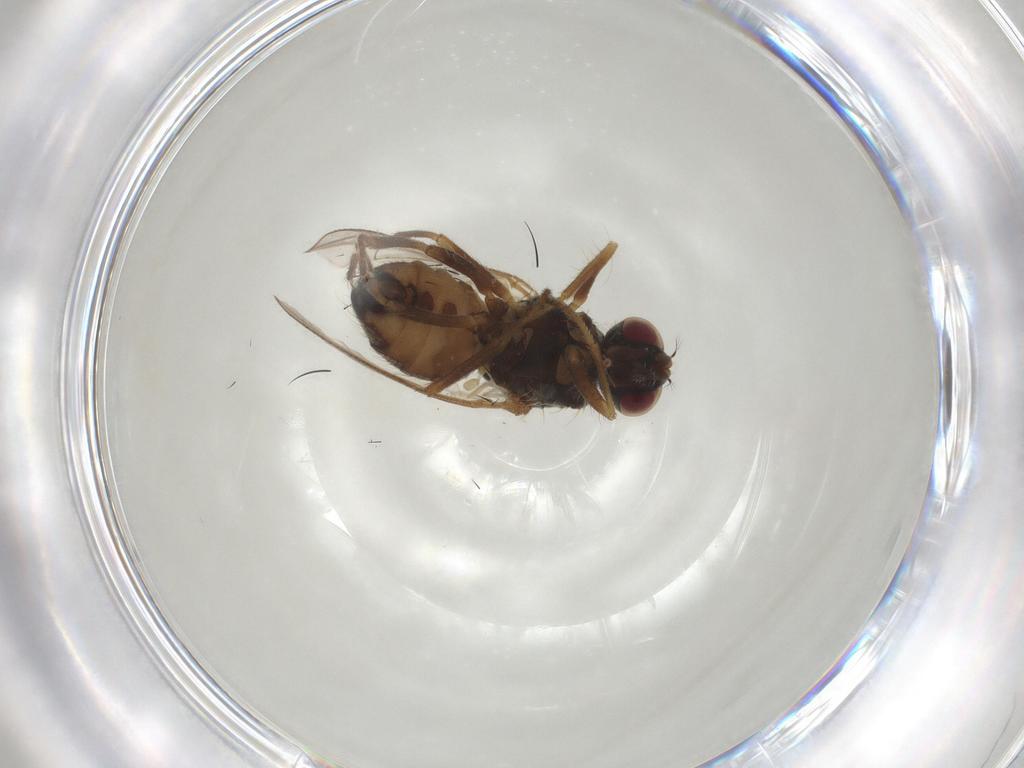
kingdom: Animalia
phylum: Arthropoda
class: Insecta
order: Diptera
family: Muscidae
